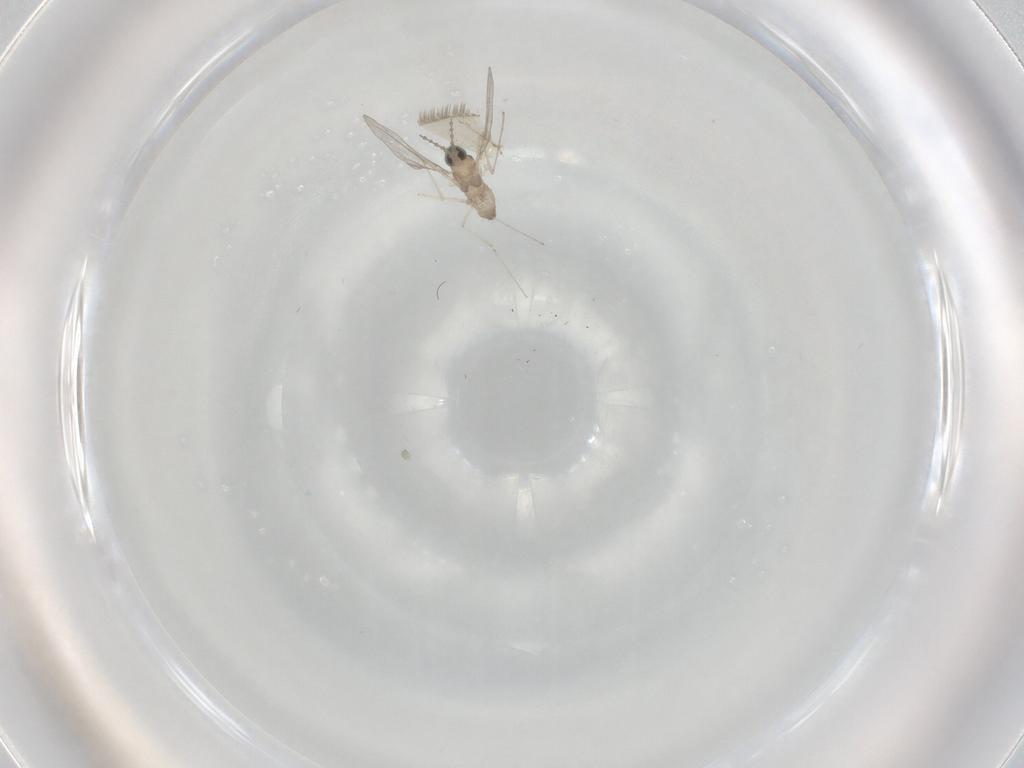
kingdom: Animalia
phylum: Arthropoda
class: Insecta
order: Diptera
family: Cecidomyiidae
